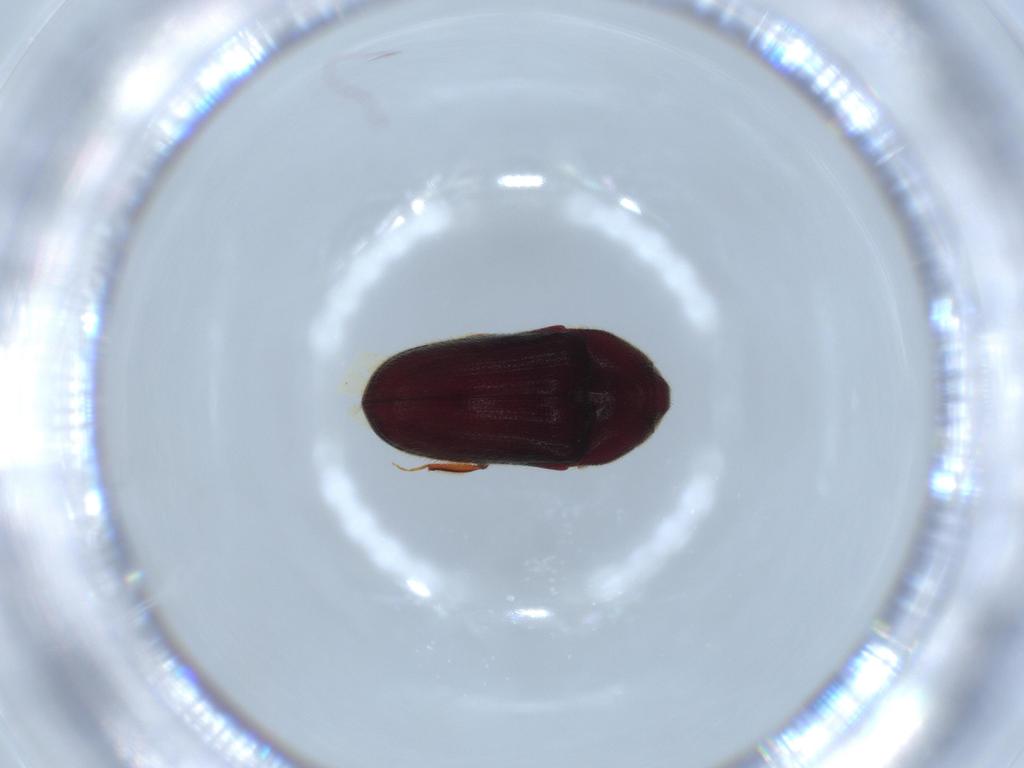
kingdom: Animalia
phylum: Arthropoda
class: Insecta
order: Coleoptera
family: Throscidae
